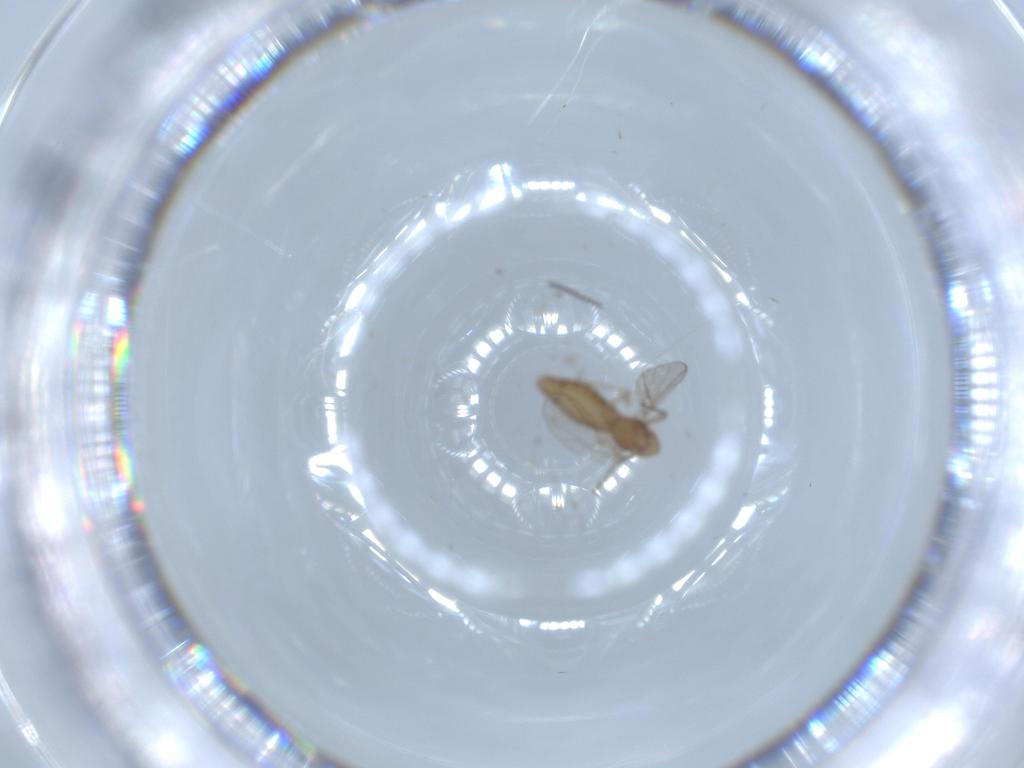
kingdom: Animalia
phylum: Arthropoda
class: Insecta
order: Diptera
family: Chironomidae
